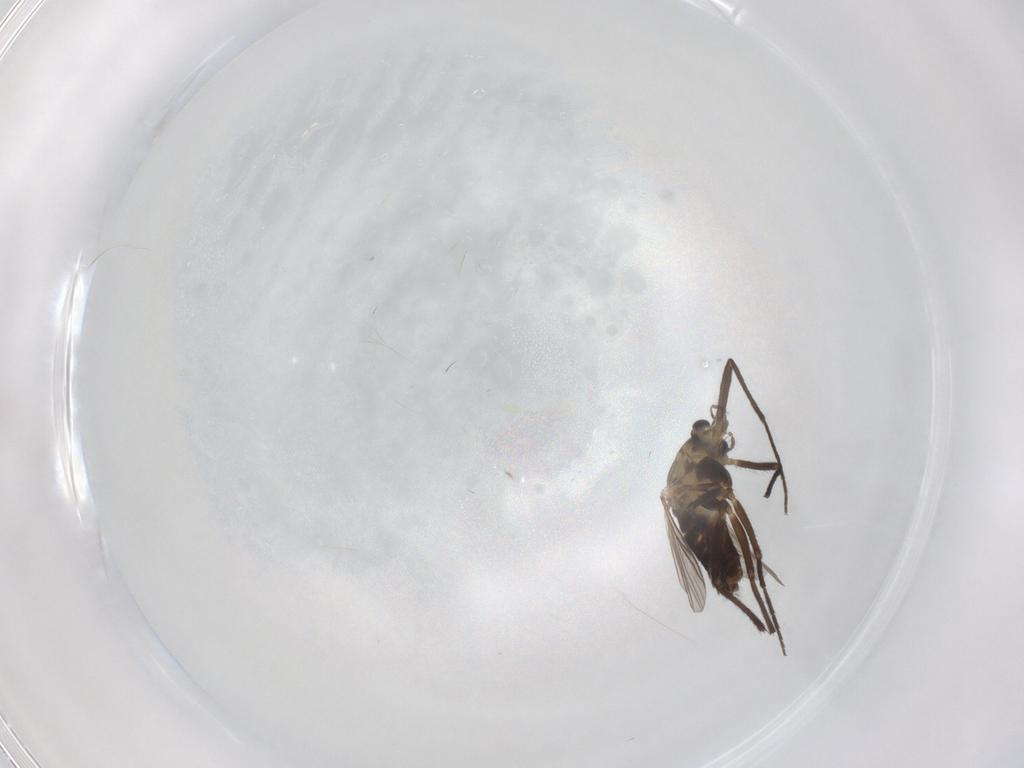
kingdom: Animalia
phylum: Arthropoda
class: Insecta
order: Diptera
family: Chironomidae
